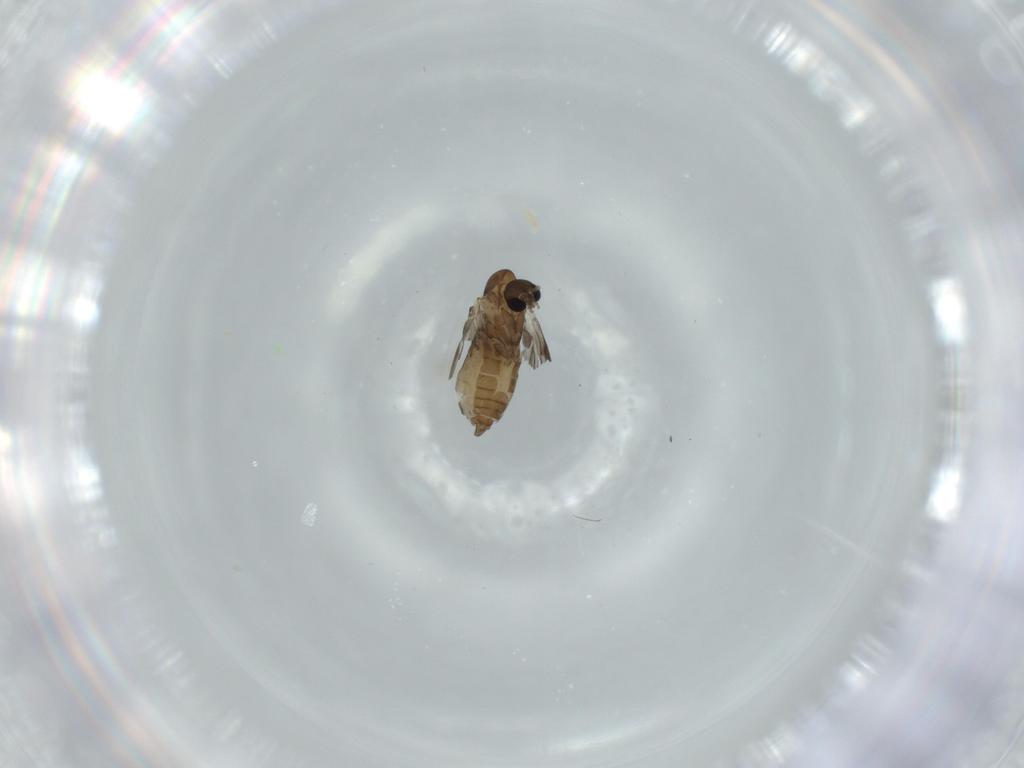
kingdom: Animalia
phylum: Arthropoda
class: Insecta
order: Diptera
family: Psychodidae
